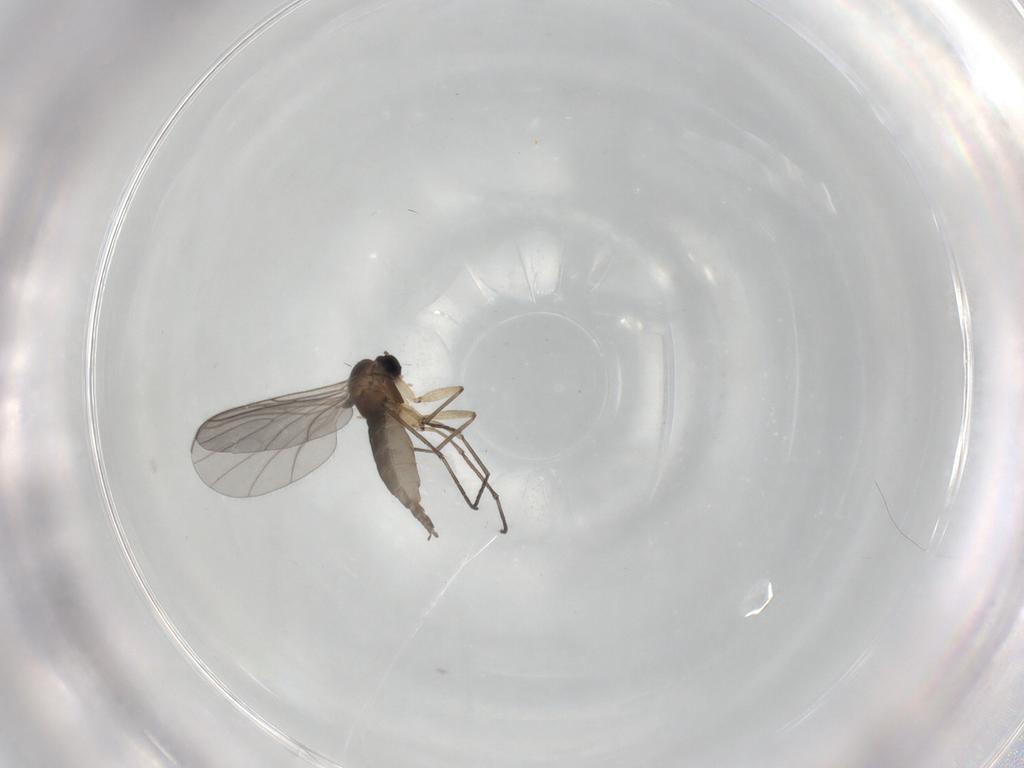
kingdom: Animalia
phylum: Arthropoda
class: Insecta
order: Diptera
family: Sciaridae
